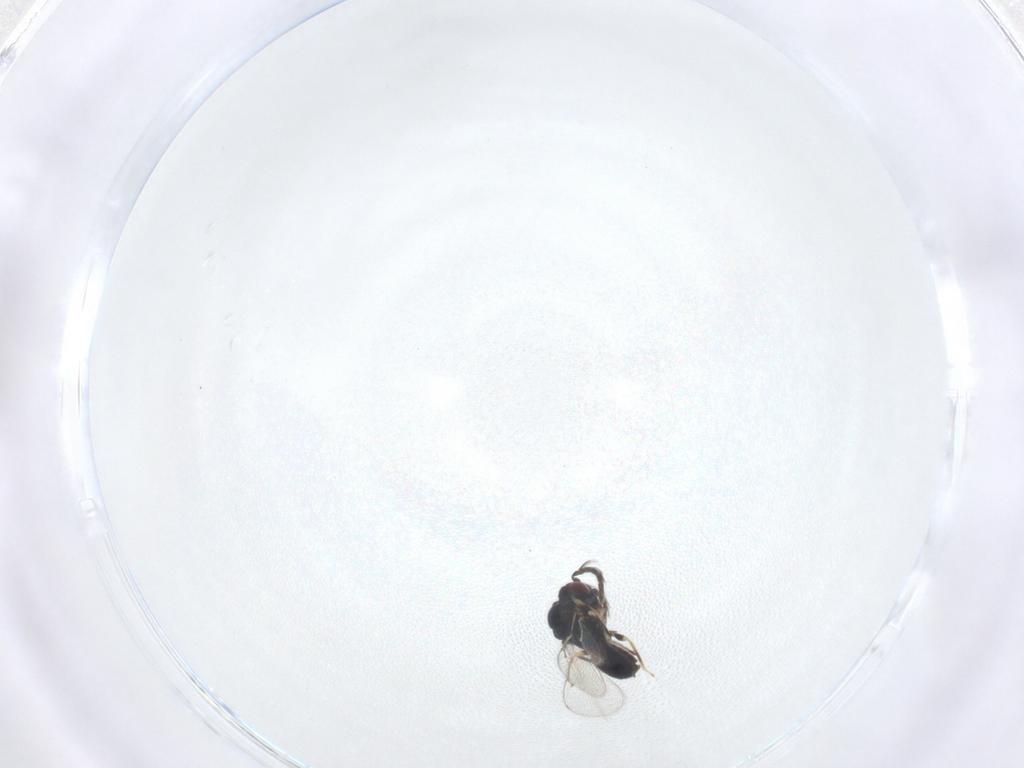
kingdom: Animalia
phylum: Arthropoda
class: Insecta
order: Hymenoptera
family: Eulophidae
